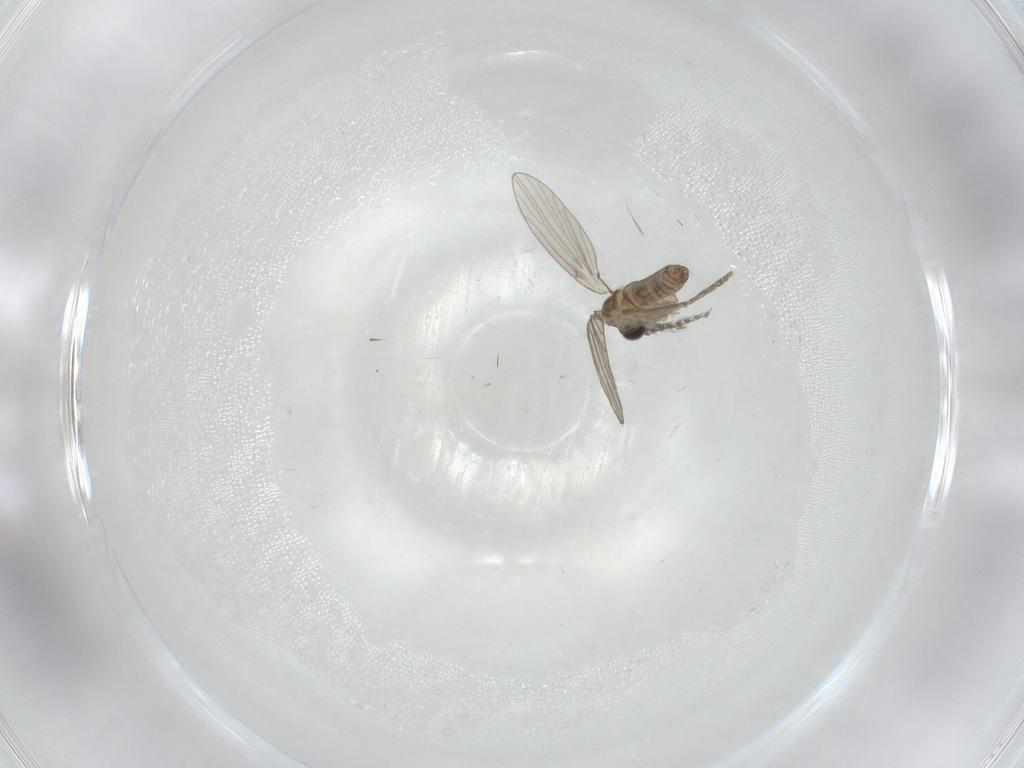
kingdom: Animalia
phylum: Arthropoda
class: Insecta
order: Diptera
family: Psychodidae
